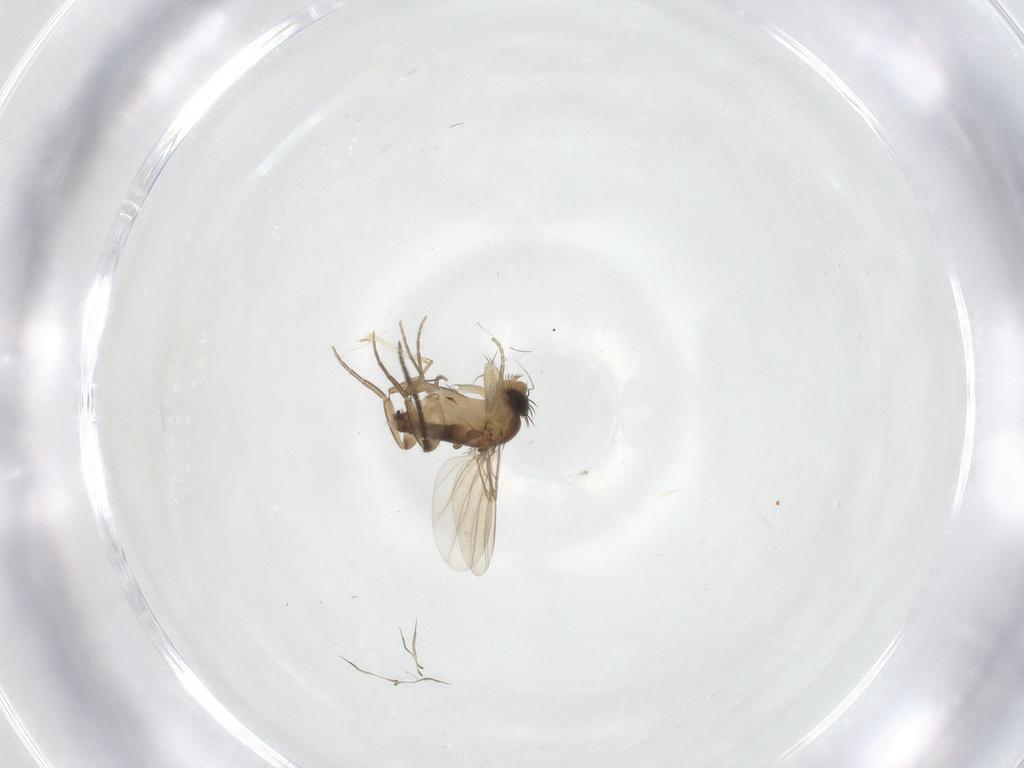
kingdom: Animalia
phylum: Arthropoda
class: Insecta
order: Diptera
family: Phoridae
